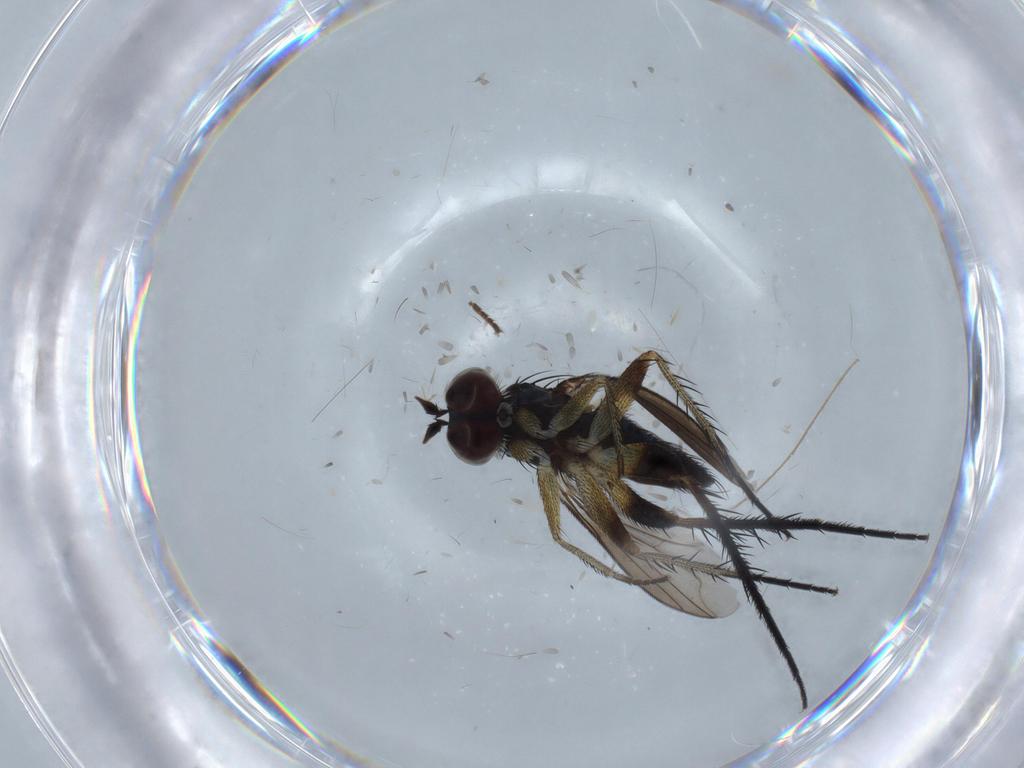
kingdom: Animalia
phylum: Arthropoda
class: Insecta
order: Diptera
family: Dolichopodidae
